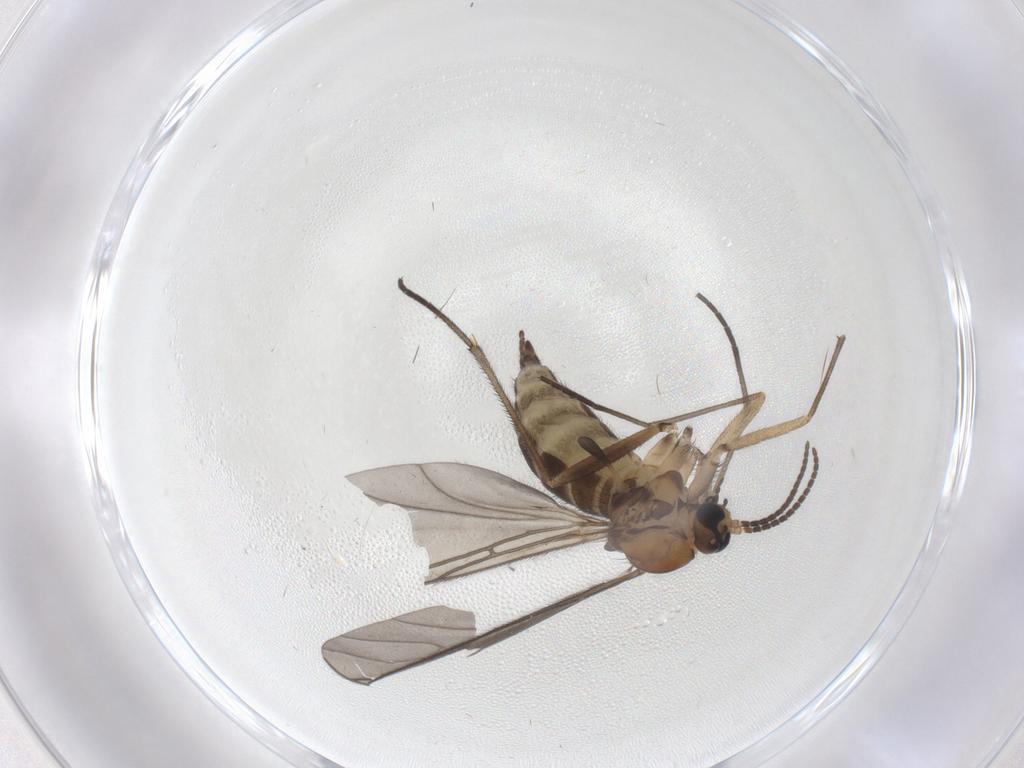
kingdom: Animalia
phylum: Arthropoda
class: Insecta
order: Diptera
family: Sciaridae
